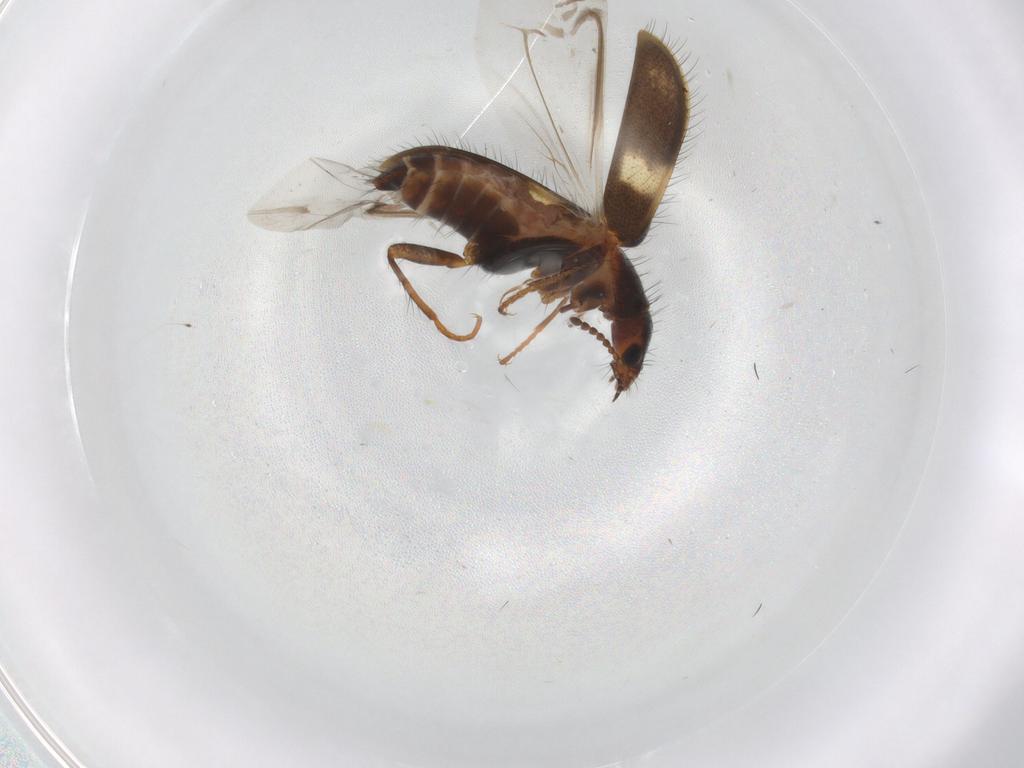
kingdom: Animalia
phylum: Arthropoda
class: Insecta
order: Coleoptera
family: Melyridae
